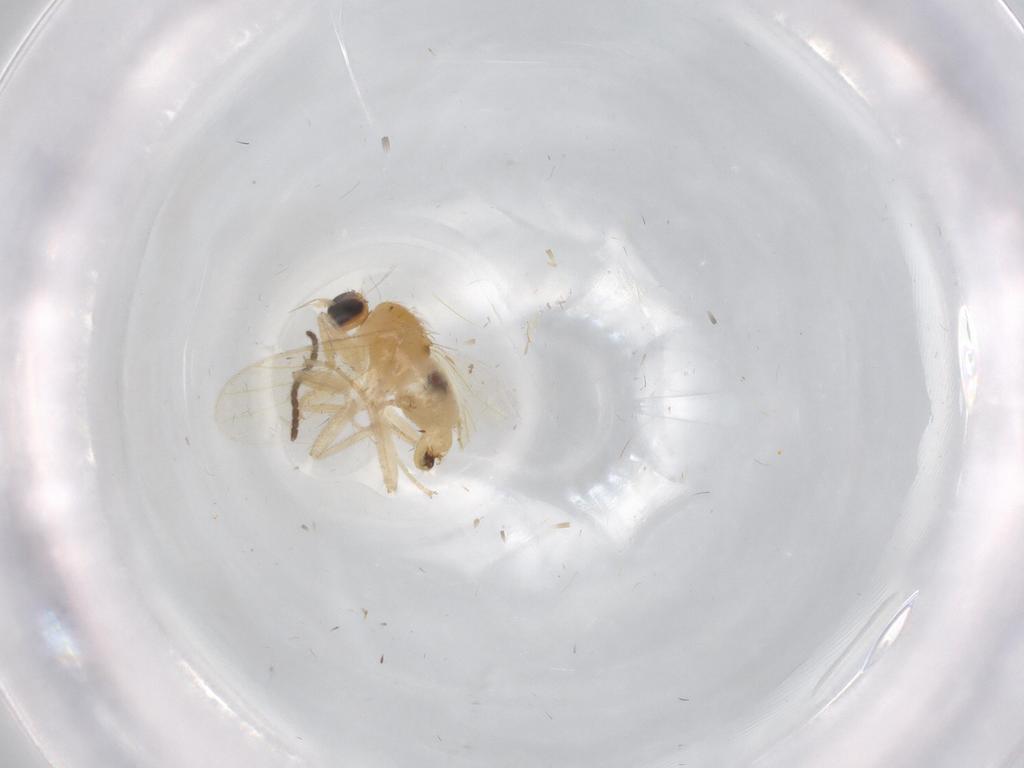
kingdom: Animalia
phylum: Arthropoda
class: Insecta
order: Diptera
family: Hybotidae
